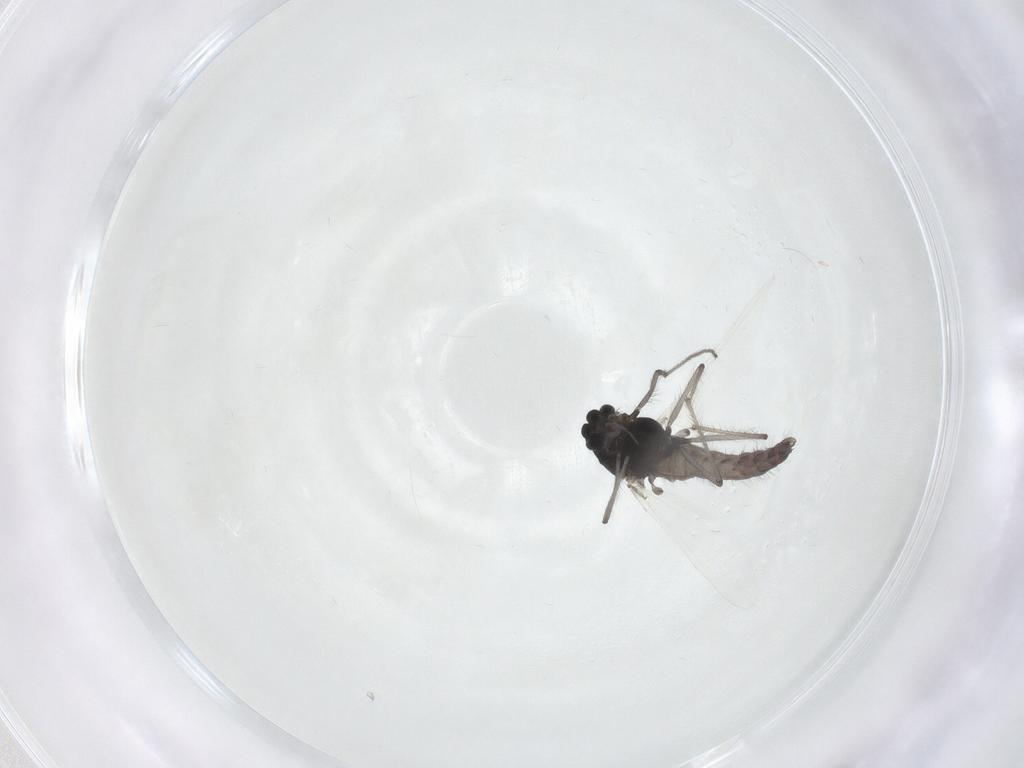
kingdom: Animalia
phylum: Arthropoda
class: Insecta
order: Diptera
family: Chironomidae
